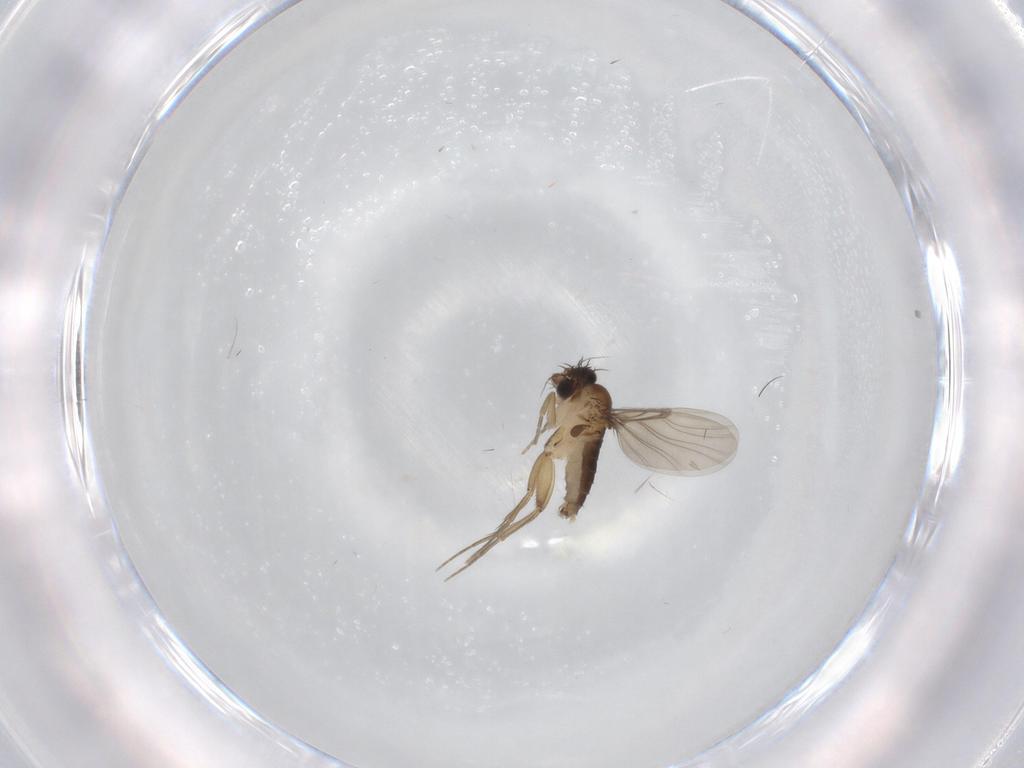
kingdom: Animalia
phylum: Arthropoda
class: Insecta
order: Diptera
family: Phoridae
